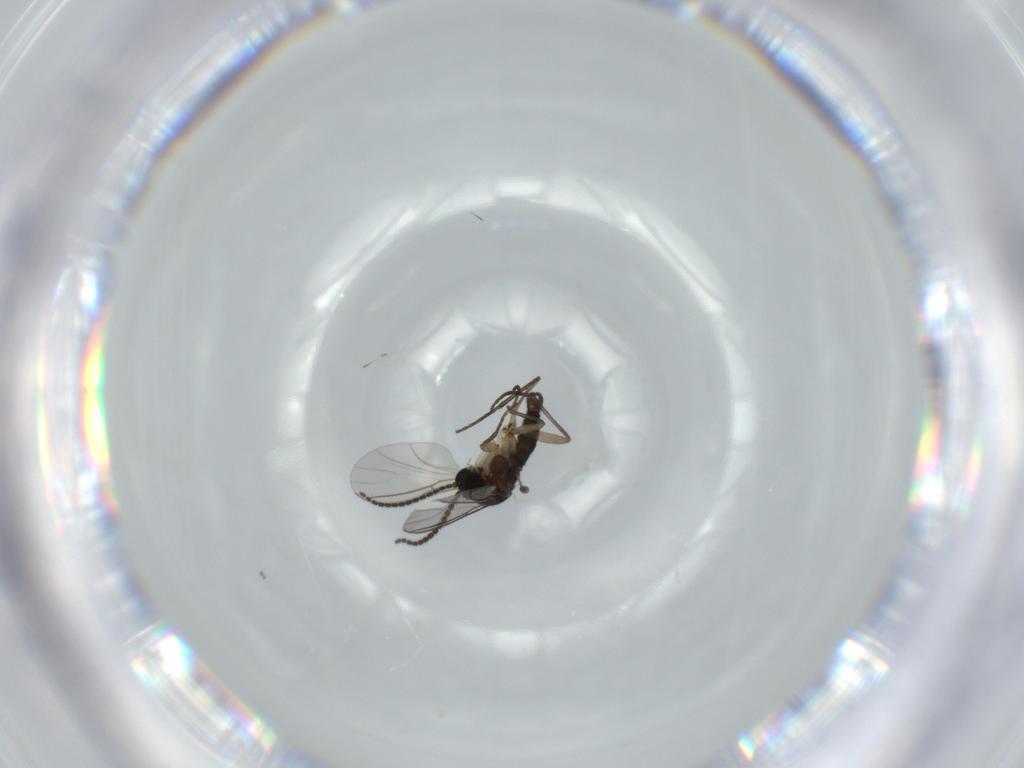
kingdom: Animalia
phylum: Arthropoda
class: Insecta
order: Diptera
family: Sciaridae
